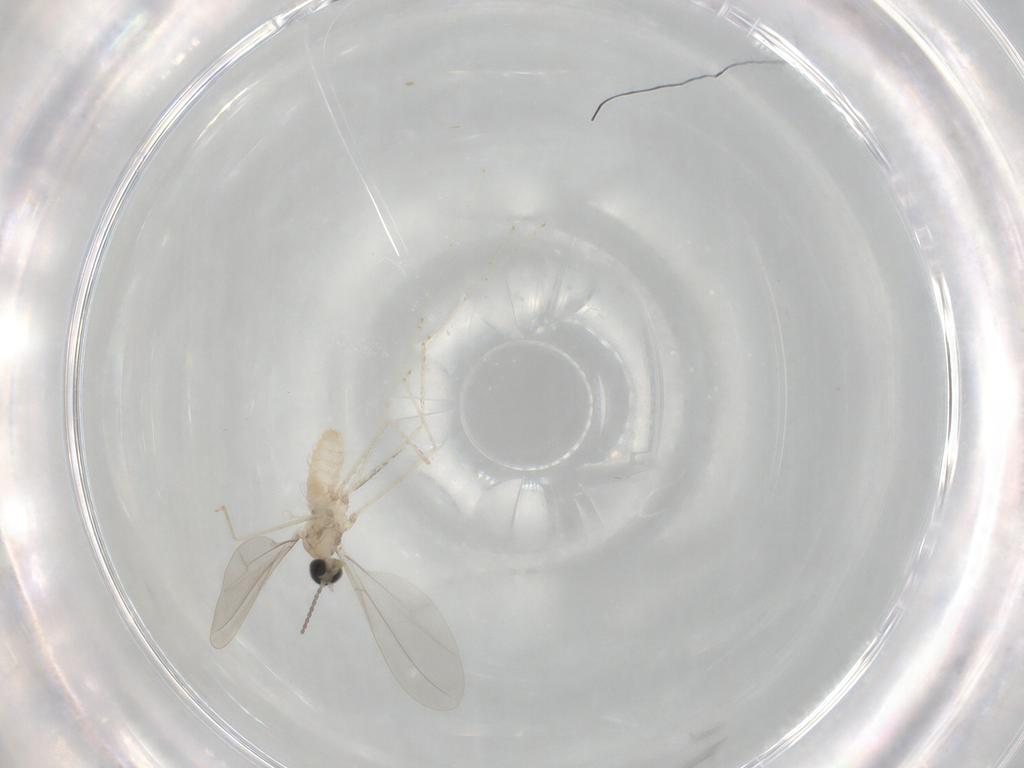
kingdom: Animalia
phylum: Arthropoda
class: Insecta
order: Diptera
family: Cecidomyiidae
